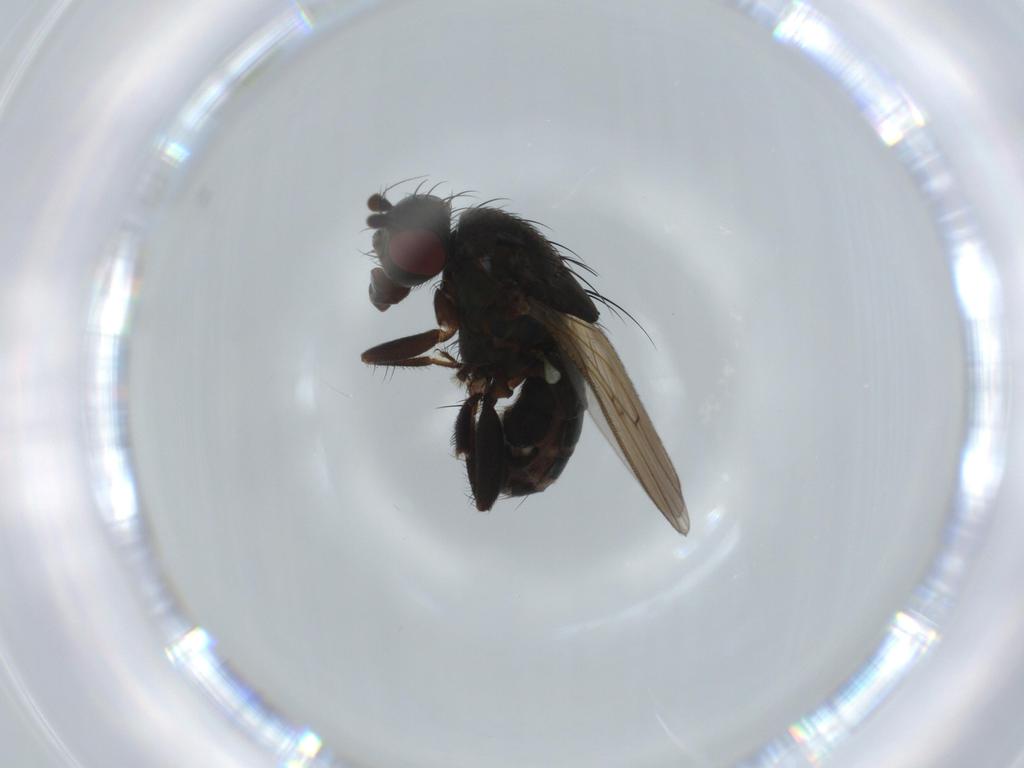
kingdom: Animalia
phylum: Arthropoda
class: Insecta
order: Diptera
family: Sphaeroceridae
